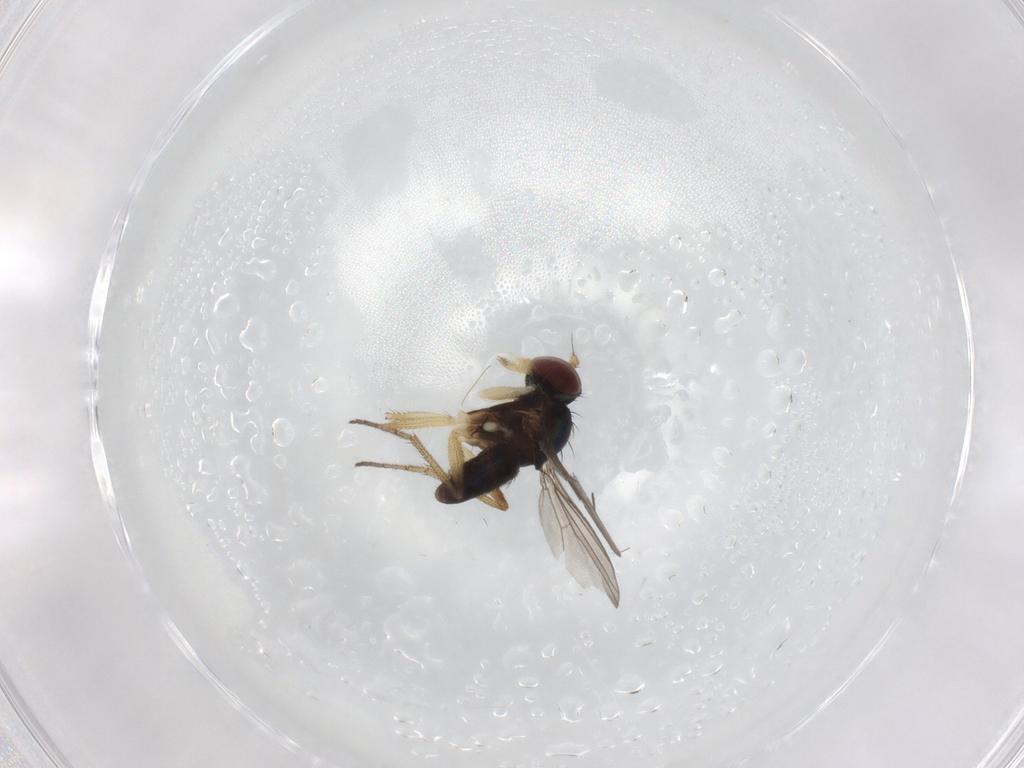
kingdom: Animalia
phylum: Arthropoda
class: Insecta
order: Diptera
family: Dolichopodidae
